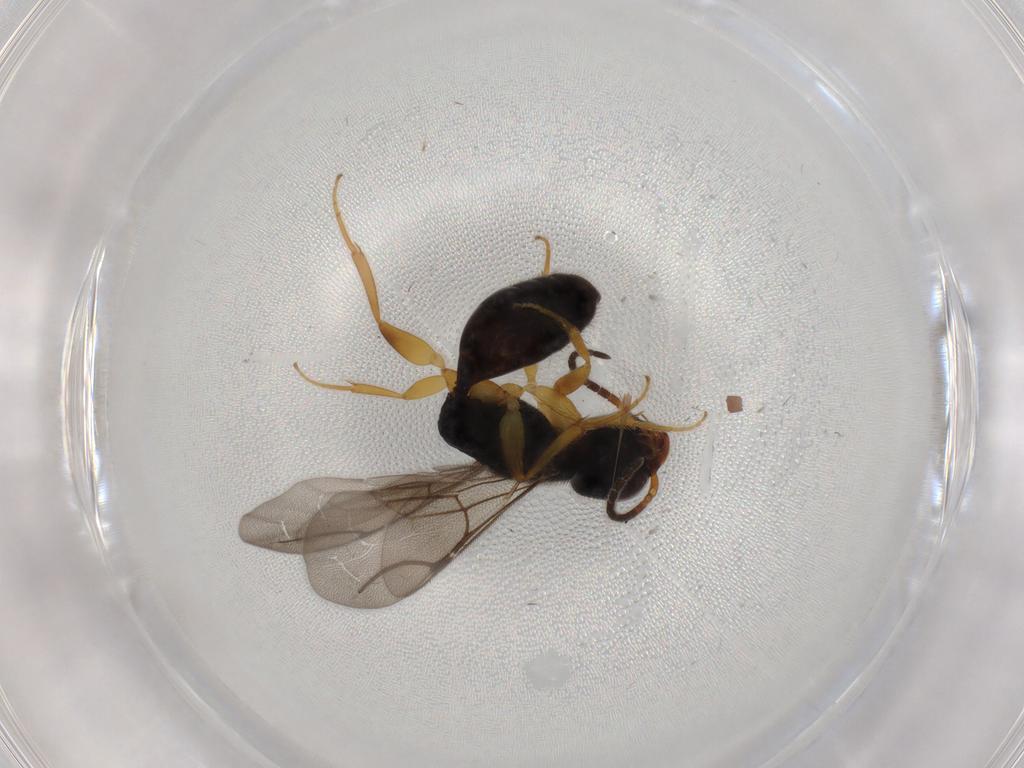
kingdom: Animalia
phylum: Arthropoda
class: Insecta
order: Hymenoptera
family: Bethylidae
